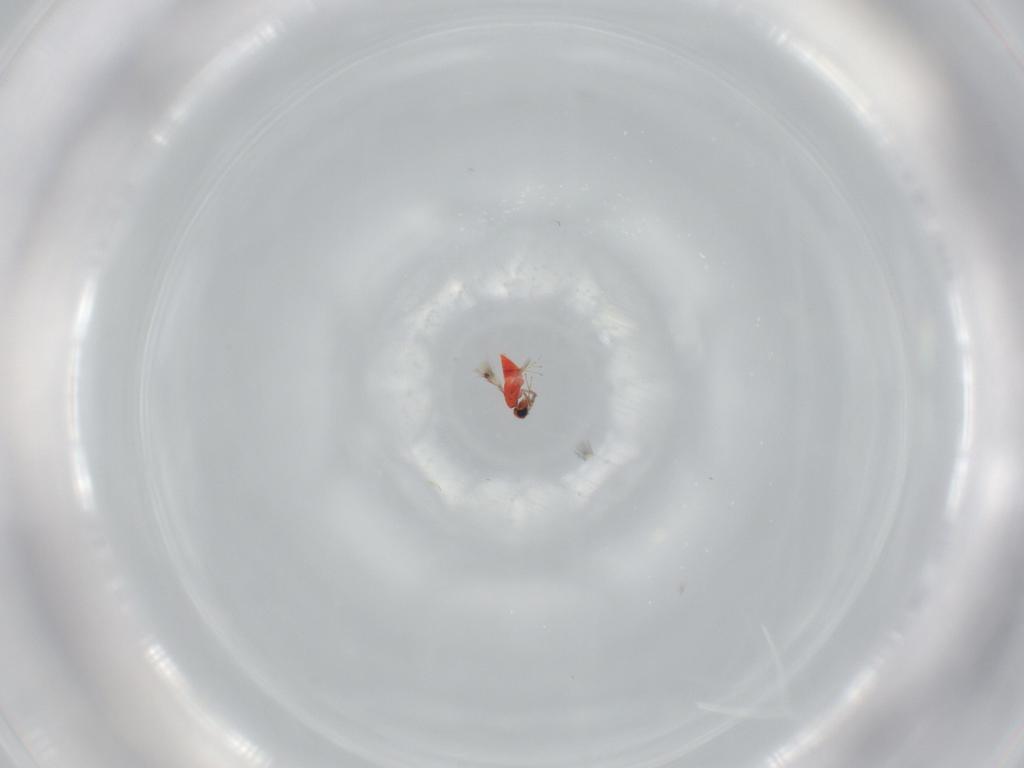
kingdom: Animalia
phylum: Arthropoda
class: Insecta
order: Hymenoptera
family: Trichogrammatidae
